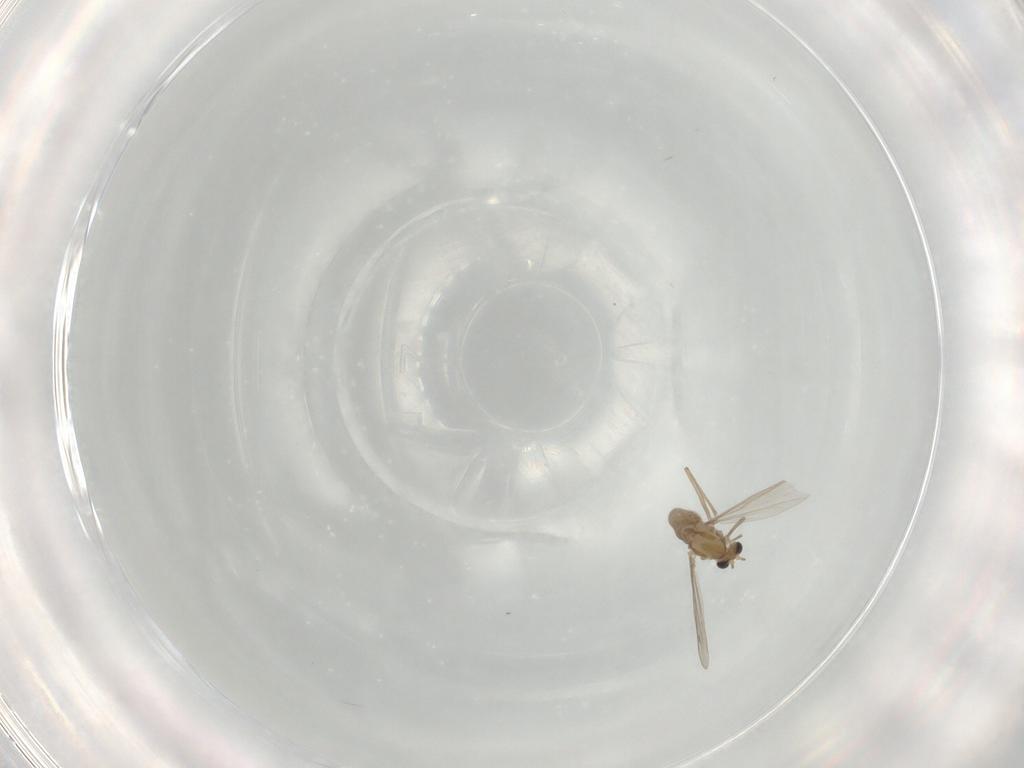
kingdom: Animalia
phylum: Arthropoda
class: Insecta
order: Diptera
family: Chironomidae
